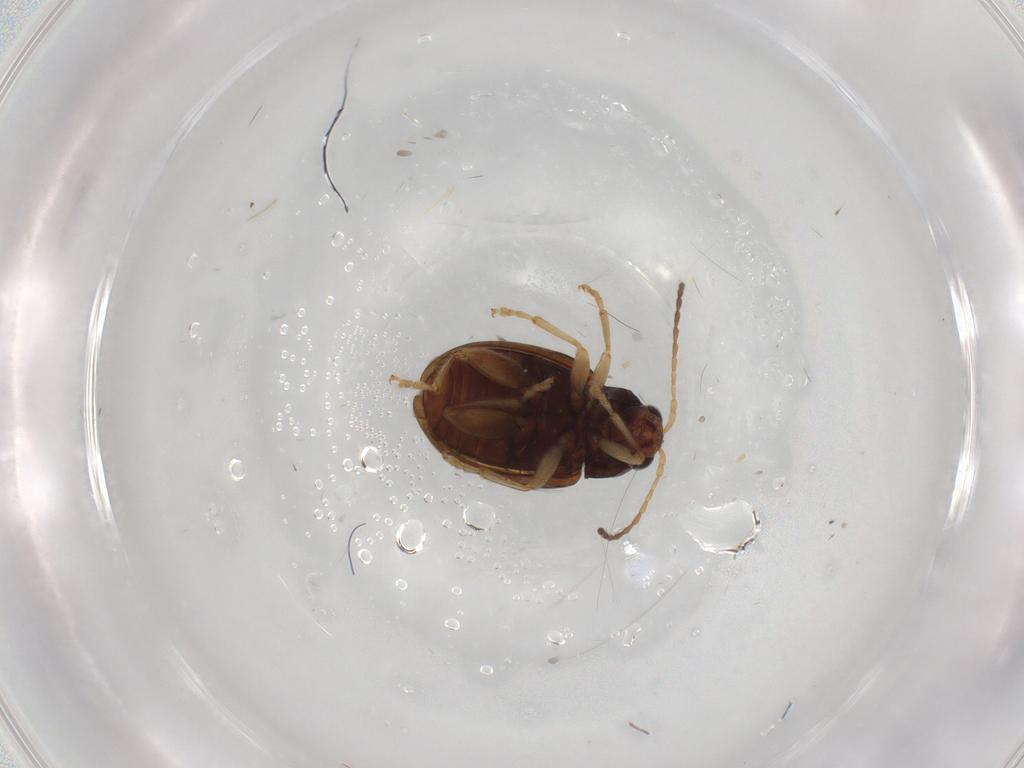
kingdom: Animalia
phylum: Arthropoda
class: Insecta
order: Coleoptera
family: Chrysomelidae
